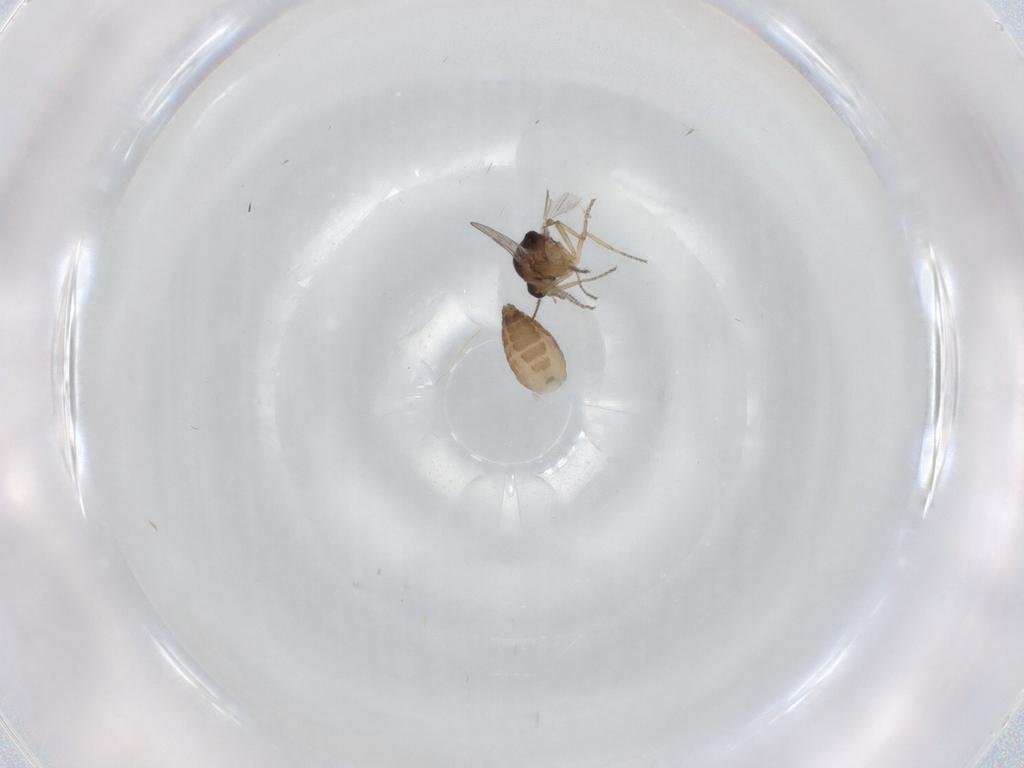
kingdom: Animalia
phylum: Arthropoda
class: Insecta
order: Diptera
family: Ceratopogonidae
